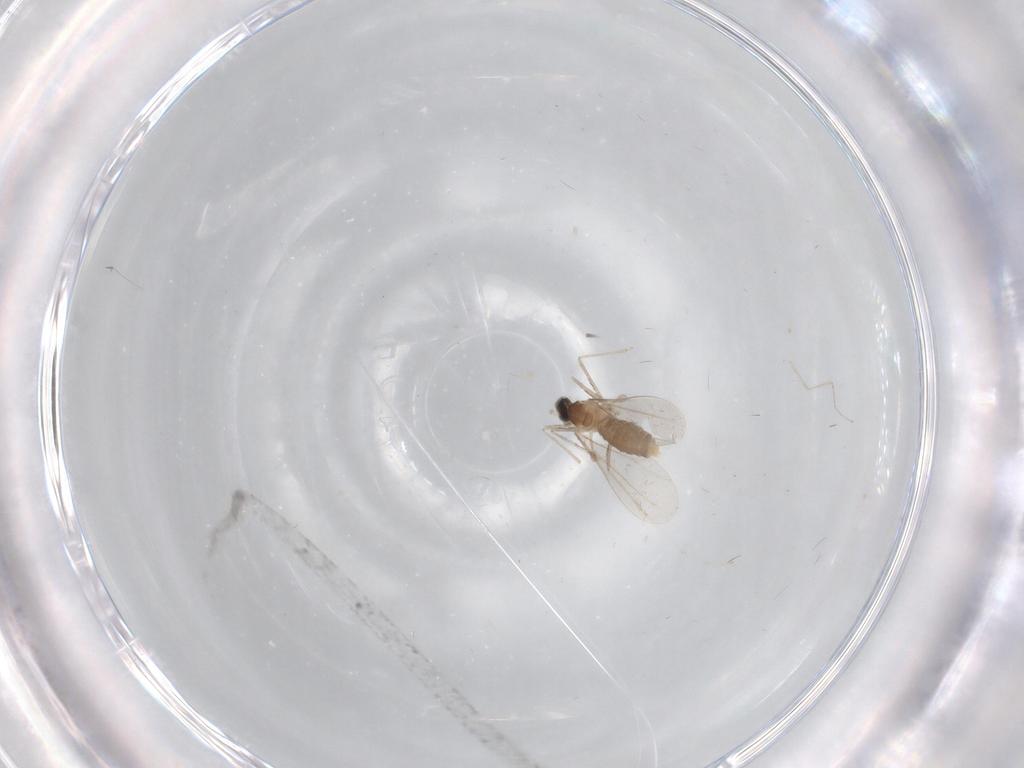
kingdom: Animalia
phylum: Arthropoda
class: Insecta
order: Diptera
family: Cecidomyiidae
